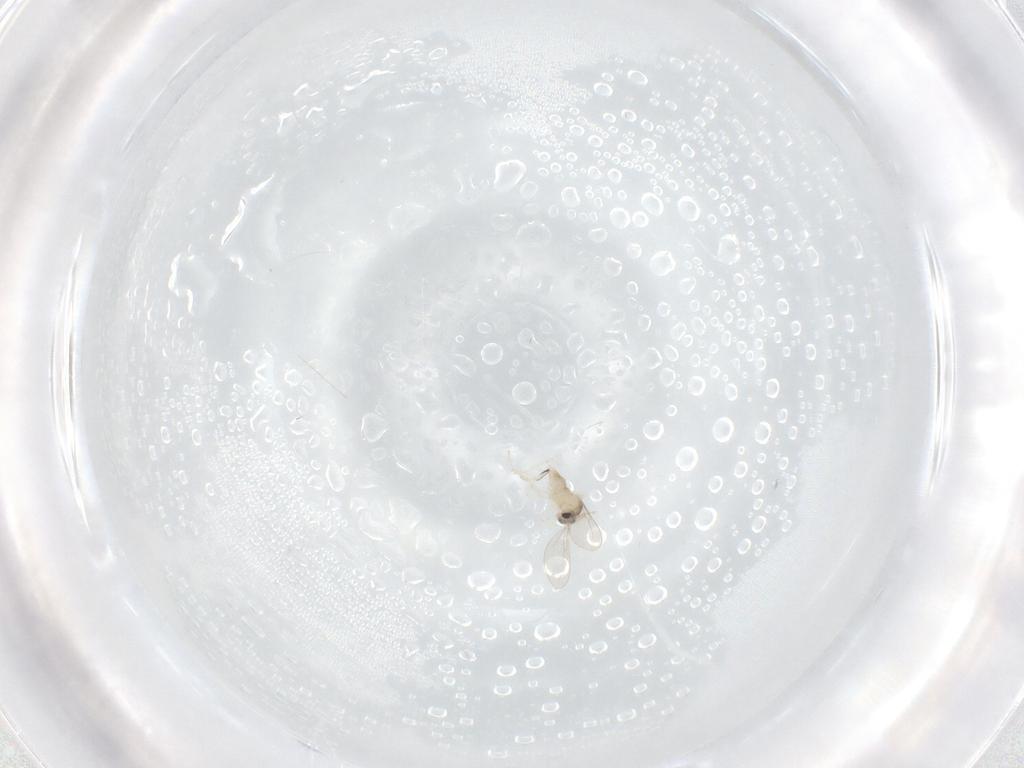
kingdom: Animalia
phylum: Arthropoda
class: Insecta
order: Diptera
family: Cecidomyiidae
